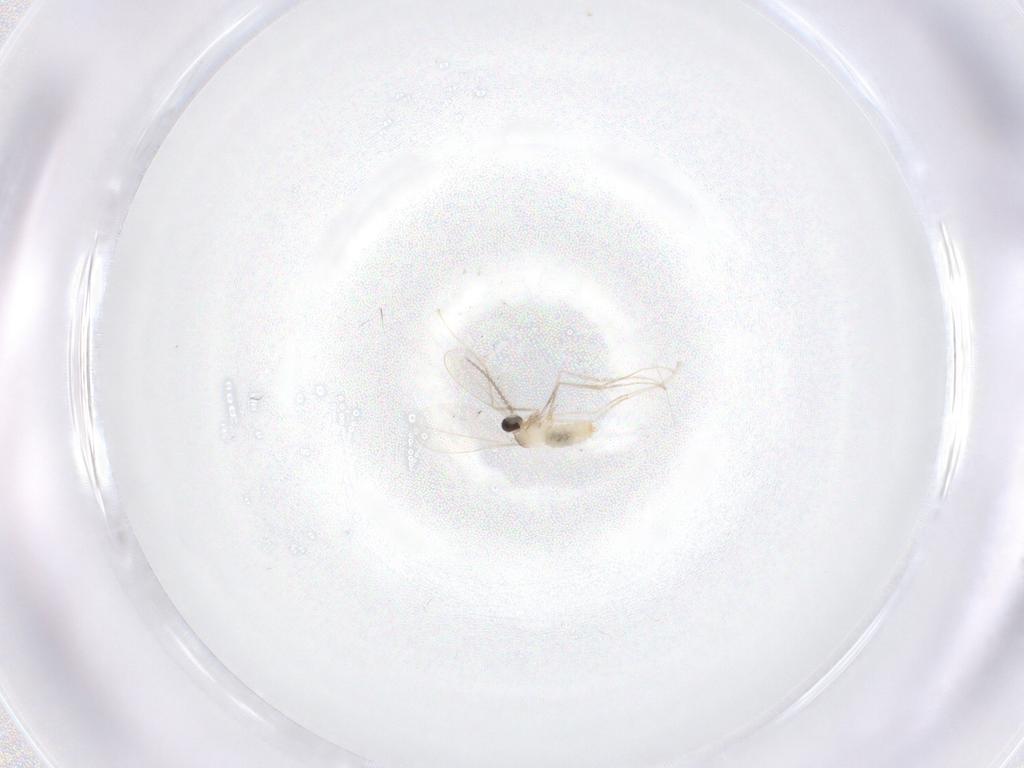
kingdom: Animalia
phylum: Arthropoda
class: Insecta
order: Diptera
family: Cecidomyiidae
